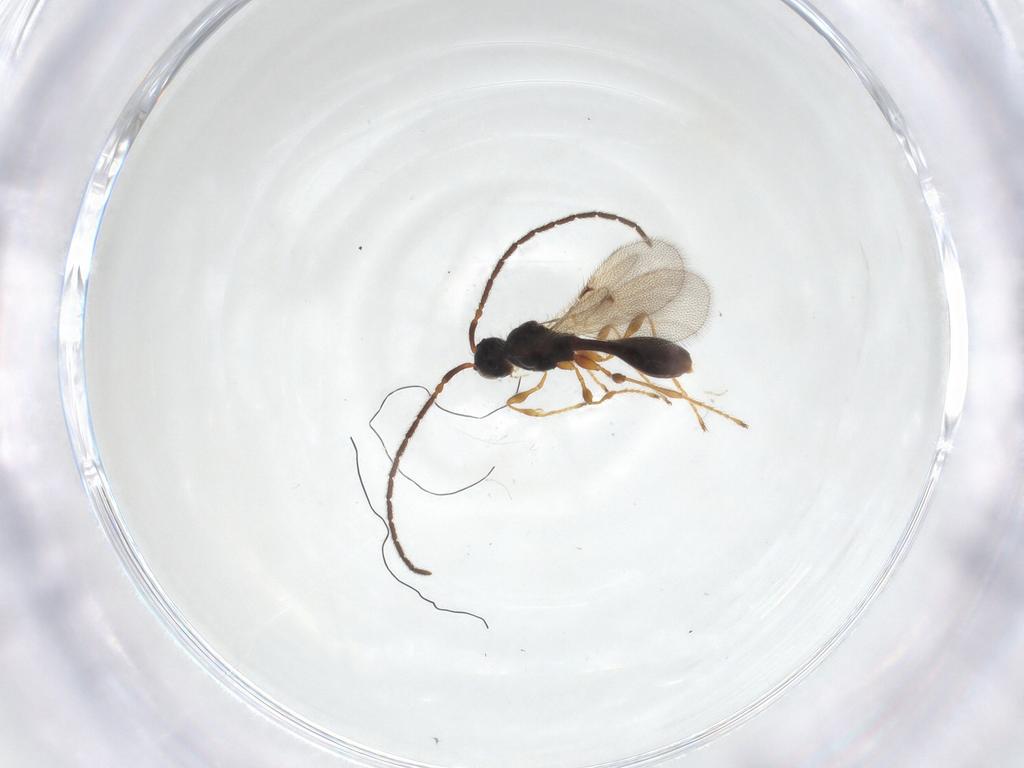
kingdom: Animalia
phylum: Arthropoda
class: Insecta
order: Hymenoptera
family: Diapriidae
